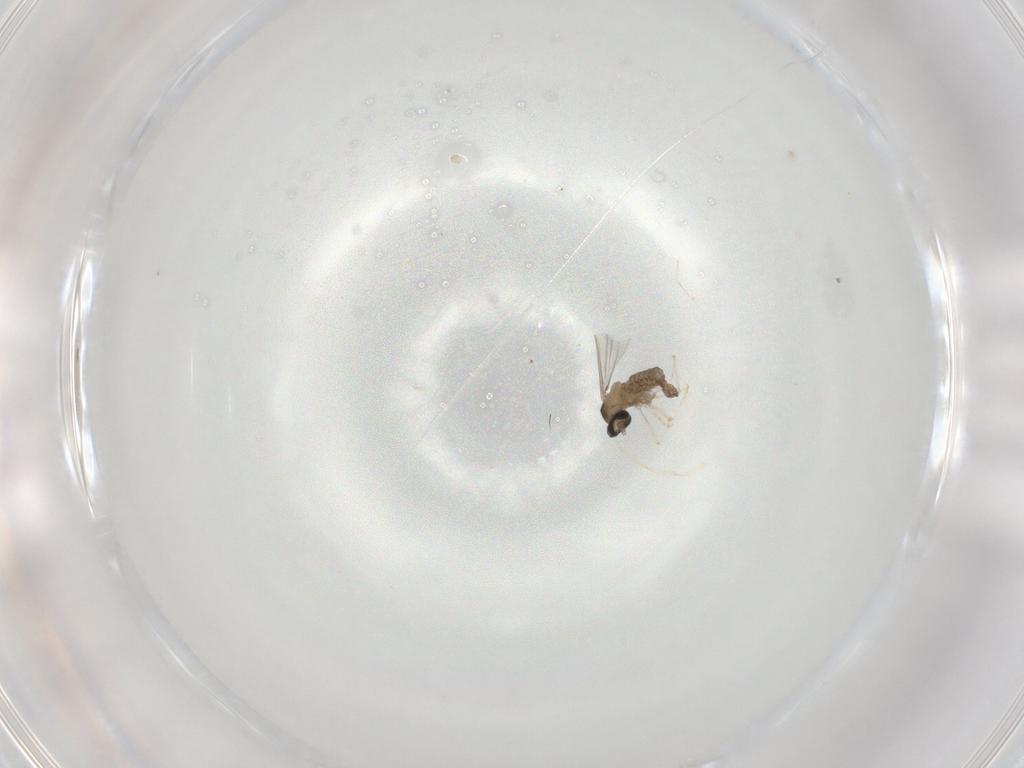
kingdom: Animalia
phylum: Arthropoda
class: Insecta
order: Diptera
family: Cecidomyiidae
